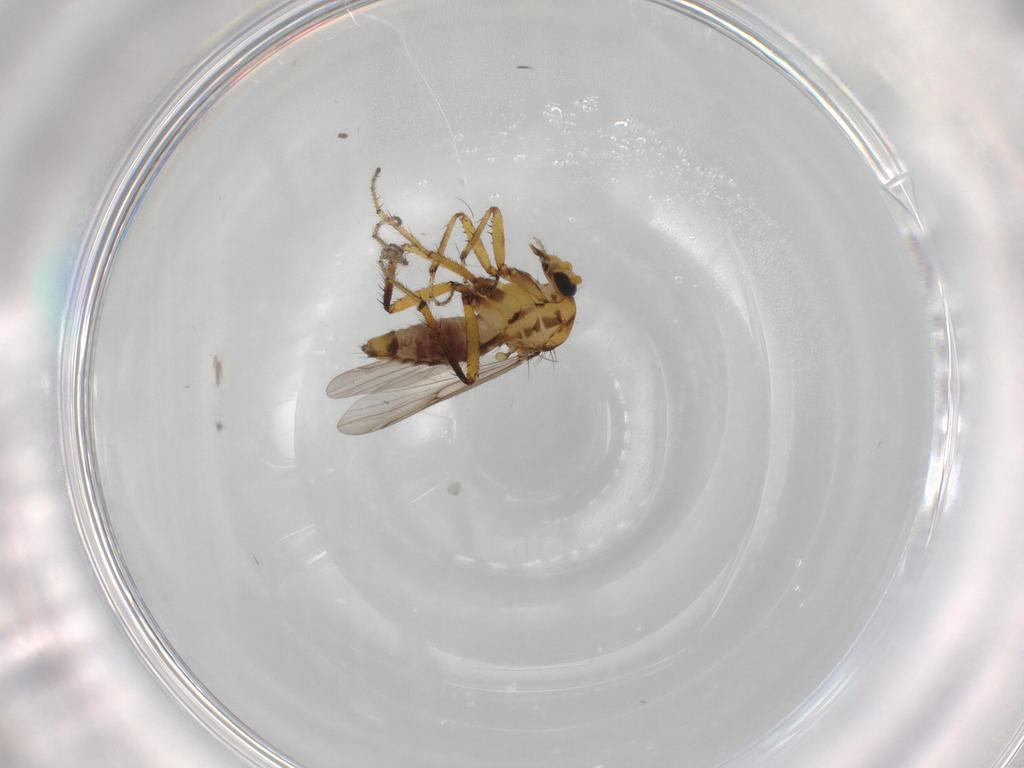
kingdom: Animalia
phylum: Arthropoda
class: Insecta
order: Diptera
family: Ceratopogonidae
